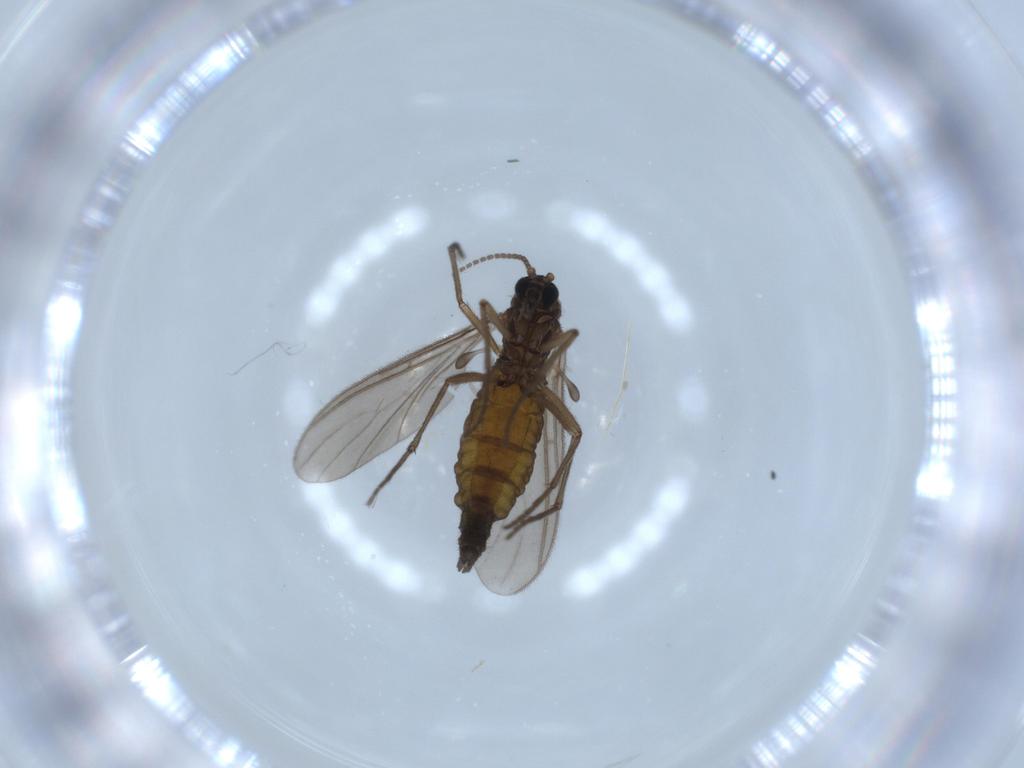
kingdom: Animalia
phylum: Arthropoda
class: Insecta
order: Diptera
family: Sciaridae
